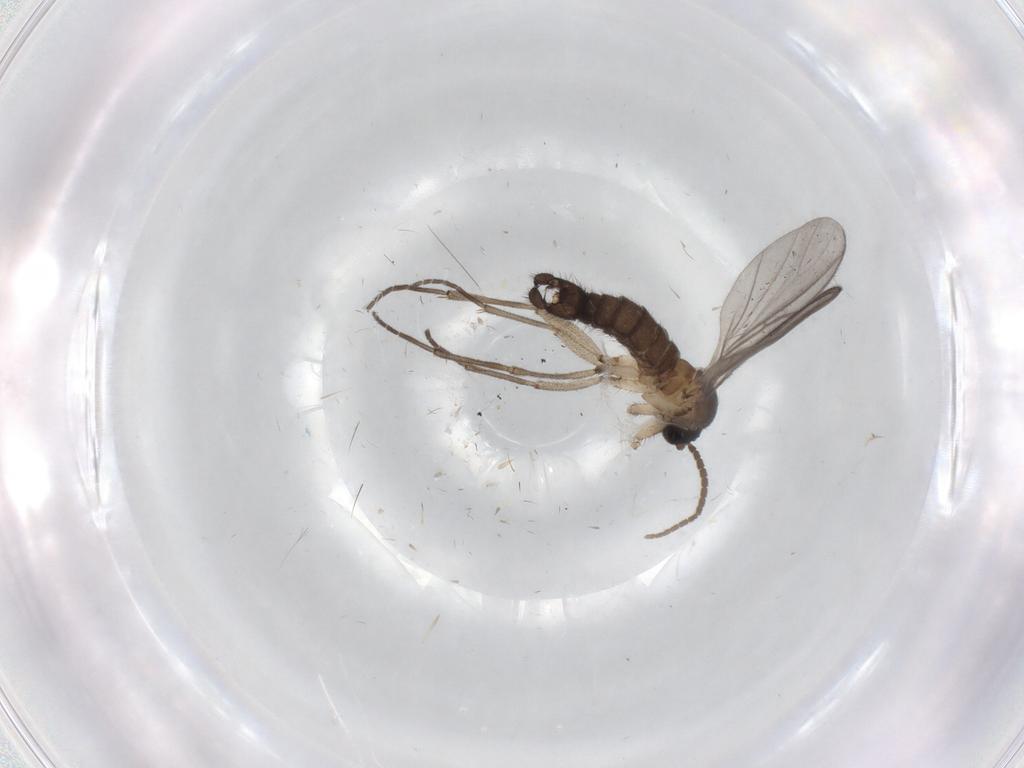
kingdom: Animalia
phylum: Arthropoda
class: Insecta
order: Diptera
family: Sciaridae
